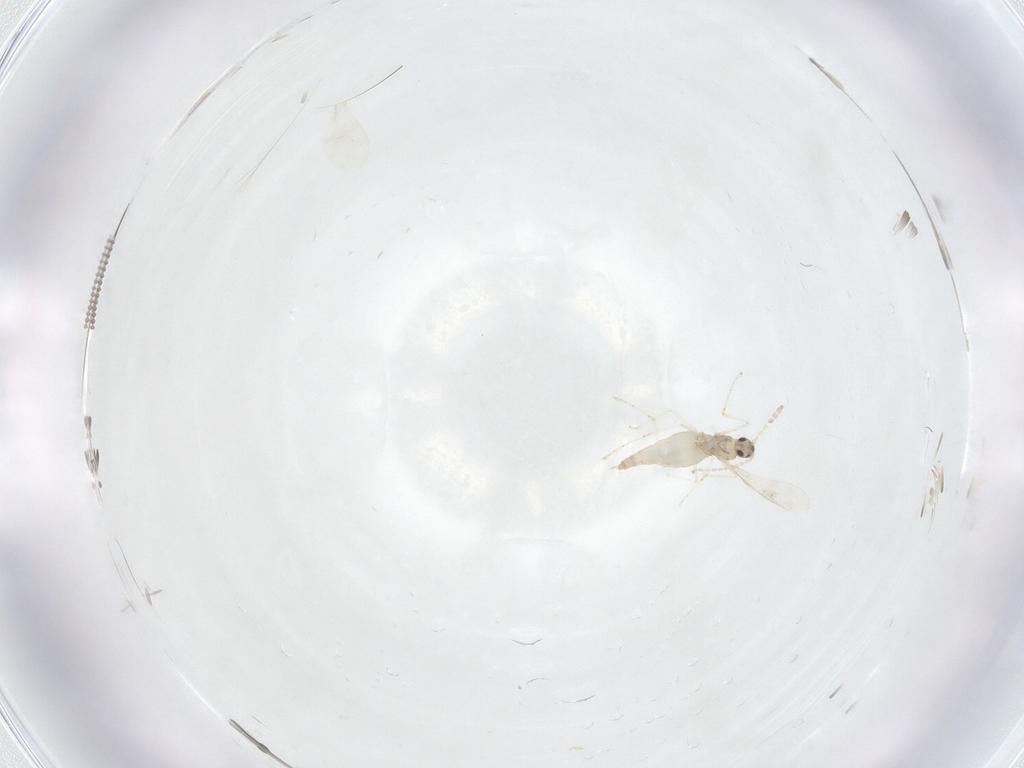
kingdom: Animalia
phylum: Arthropoda
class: Insecta
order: Diptera
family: Cecidomyiidae
